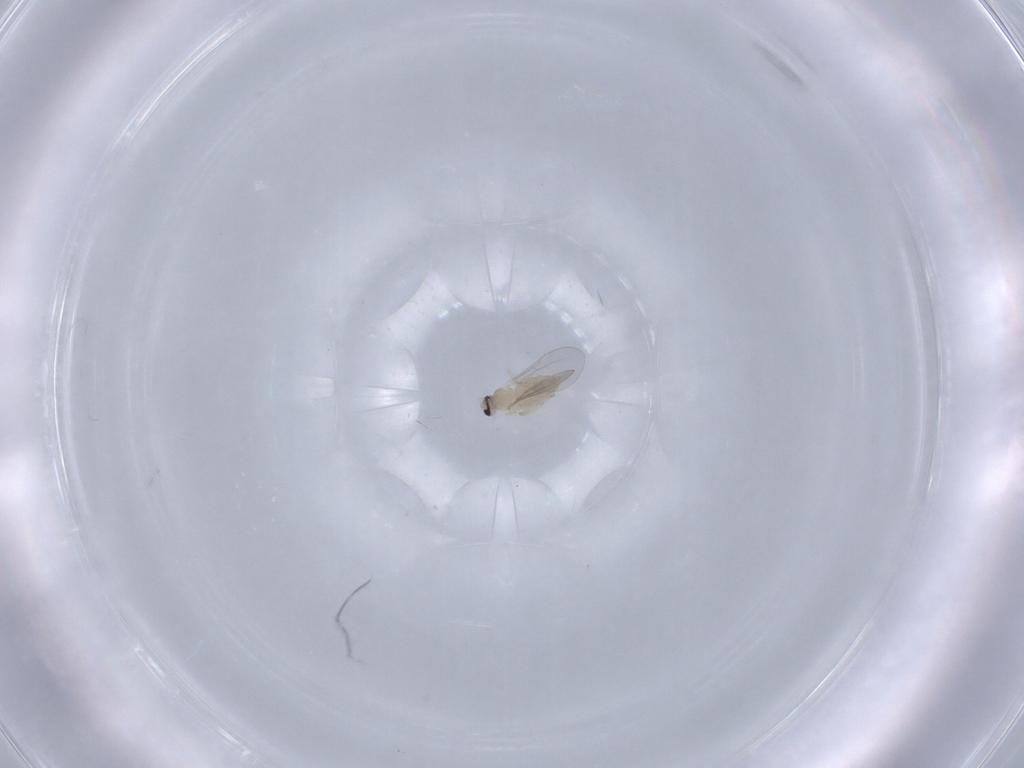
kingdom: Animalia
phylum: Arthropoda
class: Insecta
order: Diptera
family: Cecidomyiidae
